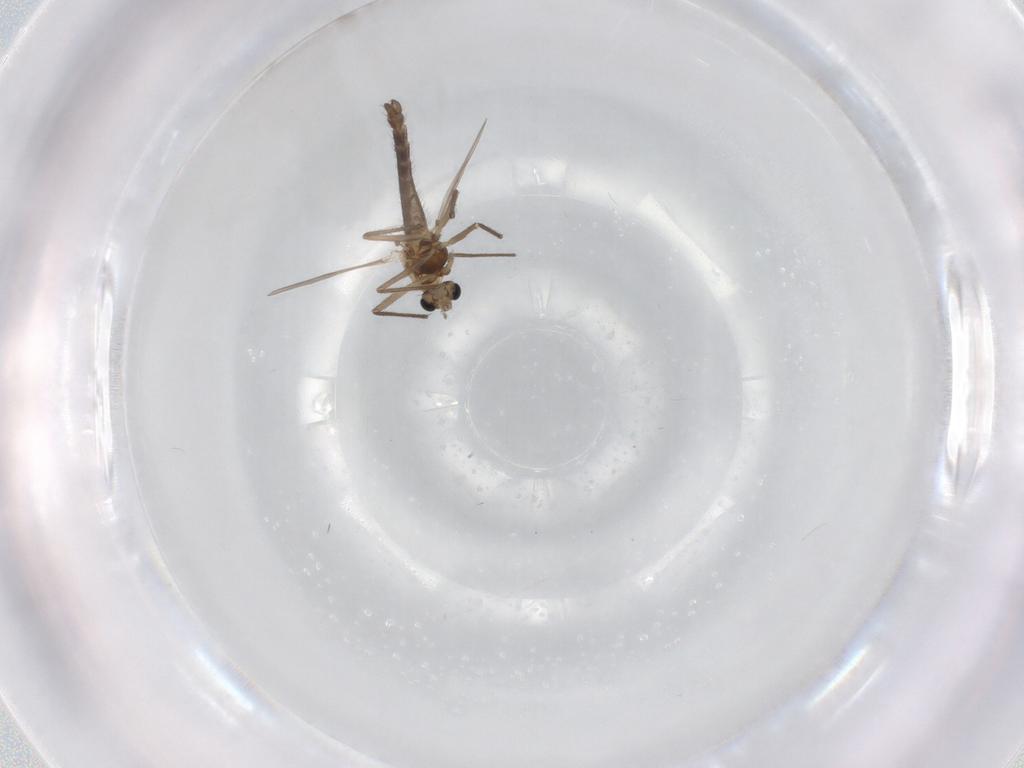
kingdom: Animalia
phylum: Arthropoda
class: Insecta
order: Diptera
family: Chironomidae
